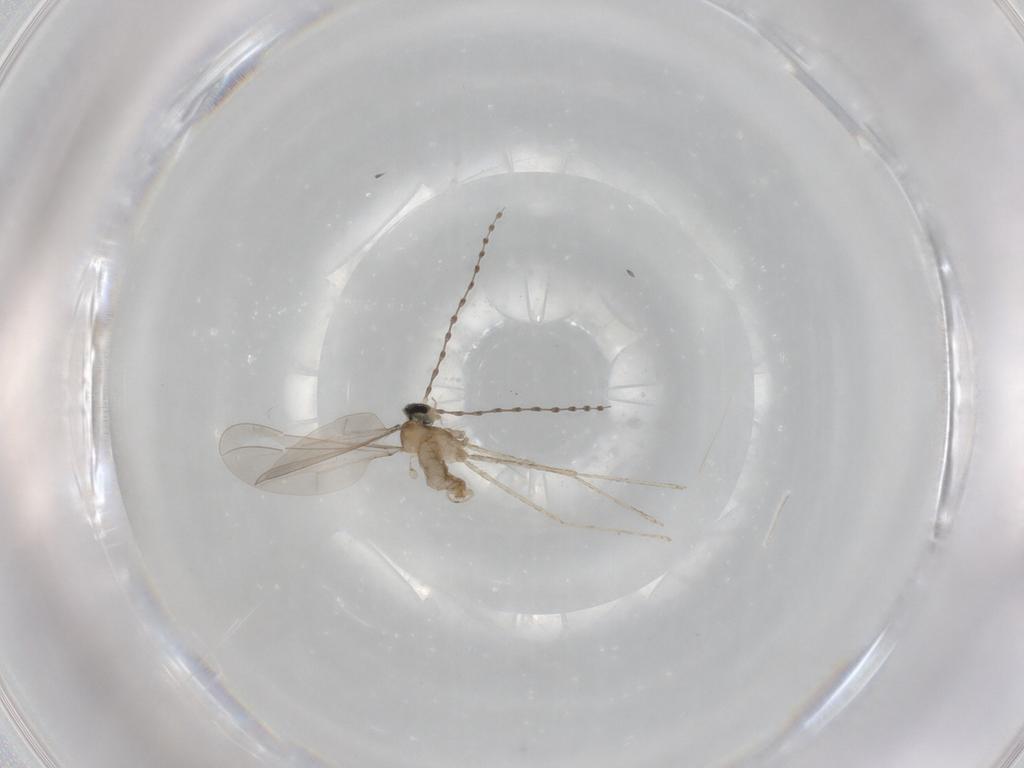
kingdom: Animalia
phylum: Arthropoda
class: Insecta
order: Diptera
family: Cecidomyiidae
